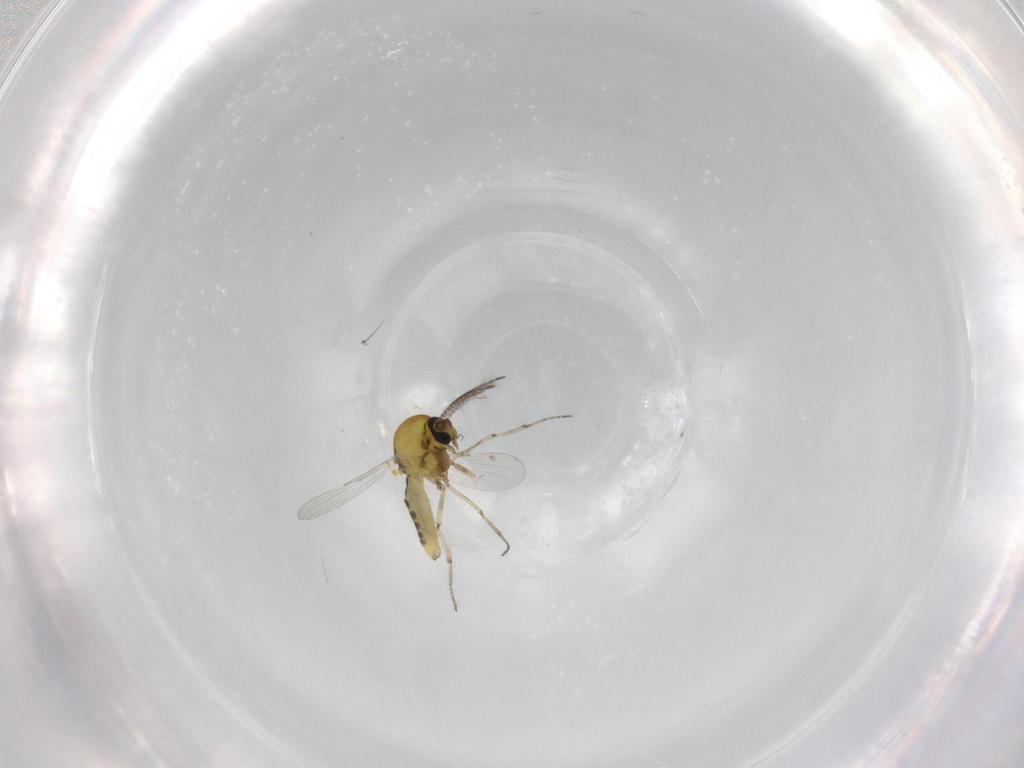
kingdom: Animalia
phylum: Arthropoda
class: Insecta
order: Diptera
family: Ceratopogonidae
